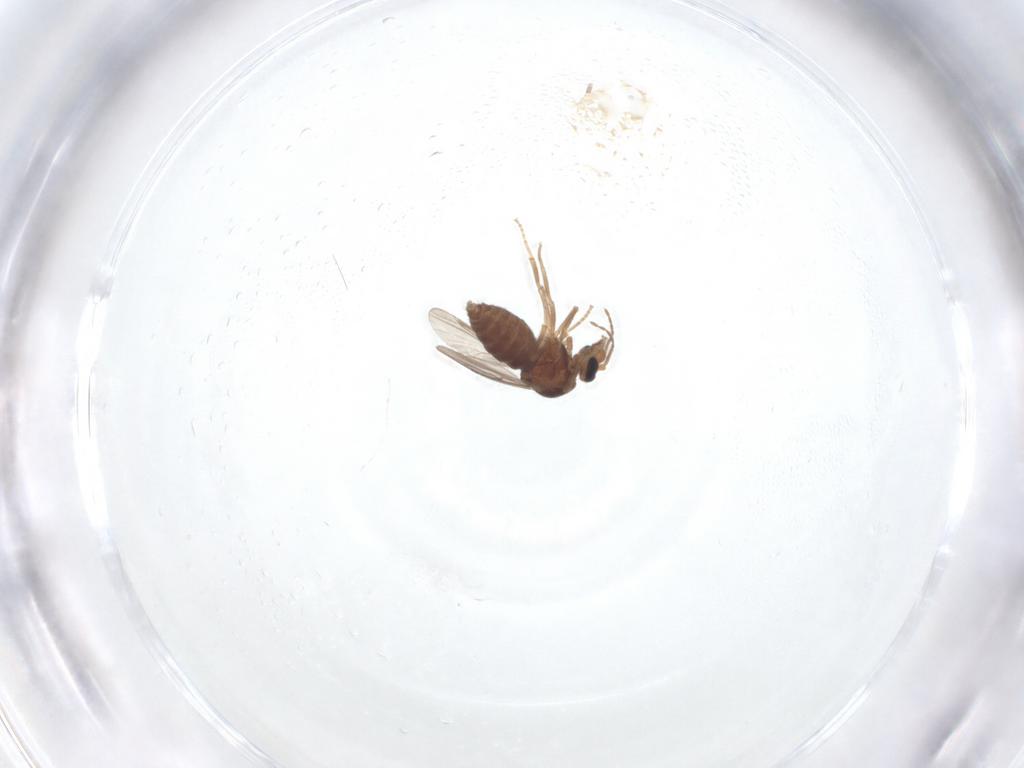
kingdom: Animalia
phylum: Arthropoda
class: Insecta
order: Diptera
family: Ceratopogonidae
